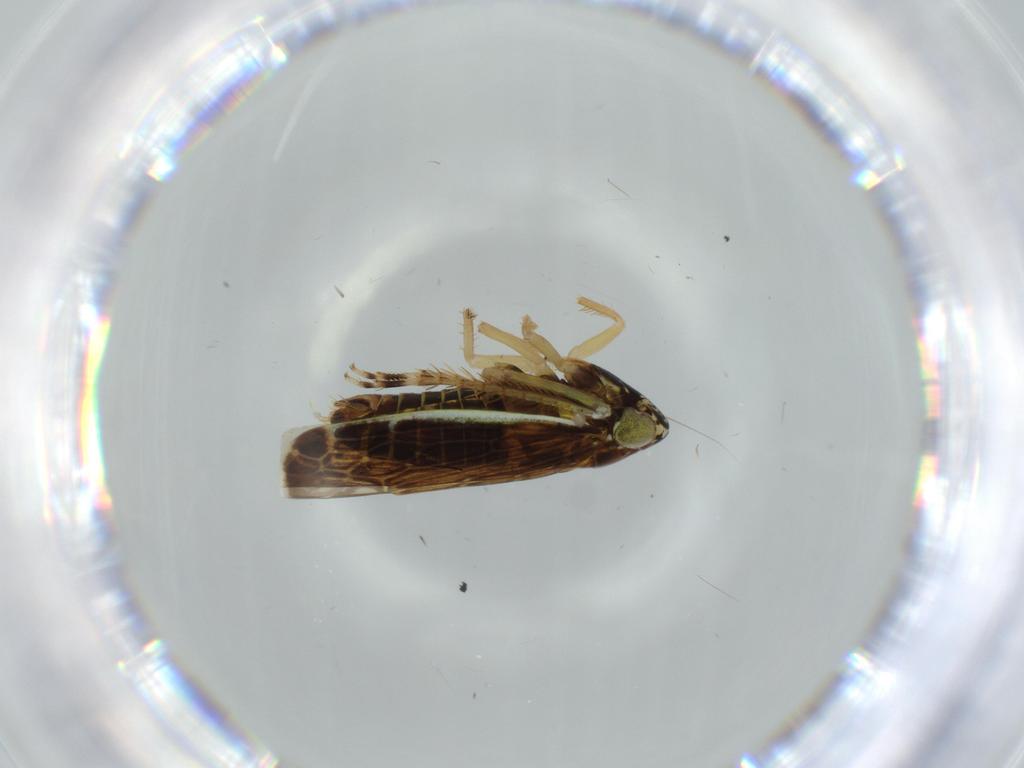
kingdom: Animalia
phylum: Arthropoda
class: Insecta
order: Hemiptera
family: Cicadellidae
